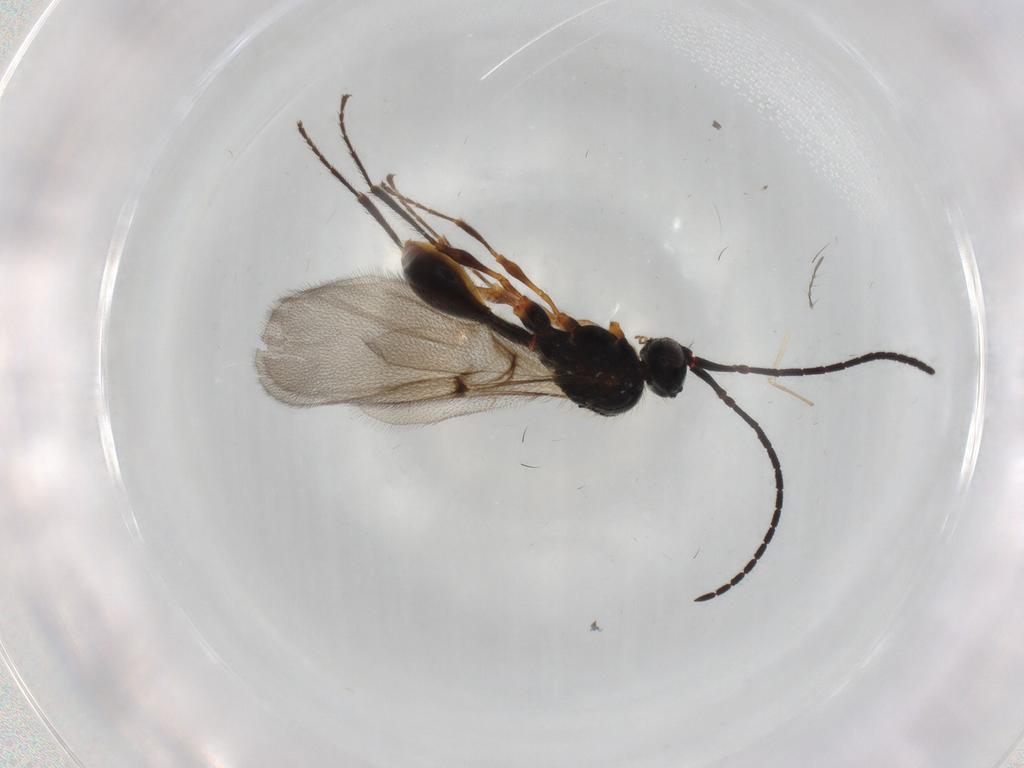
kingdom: Animalia
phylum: Arthropoda
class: Insecta
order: Hymenoptera
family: Diapriidae
